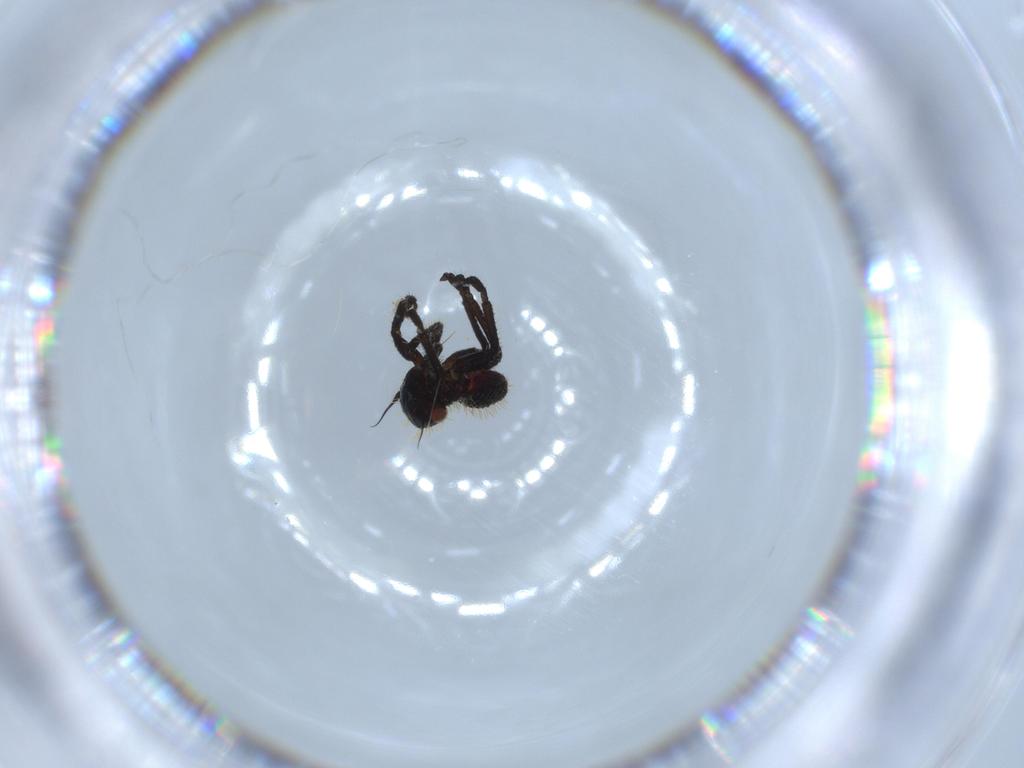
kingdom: Animalia
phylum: Arthropoda
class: Insecta
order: Hemiptera
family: Cicadellidae
